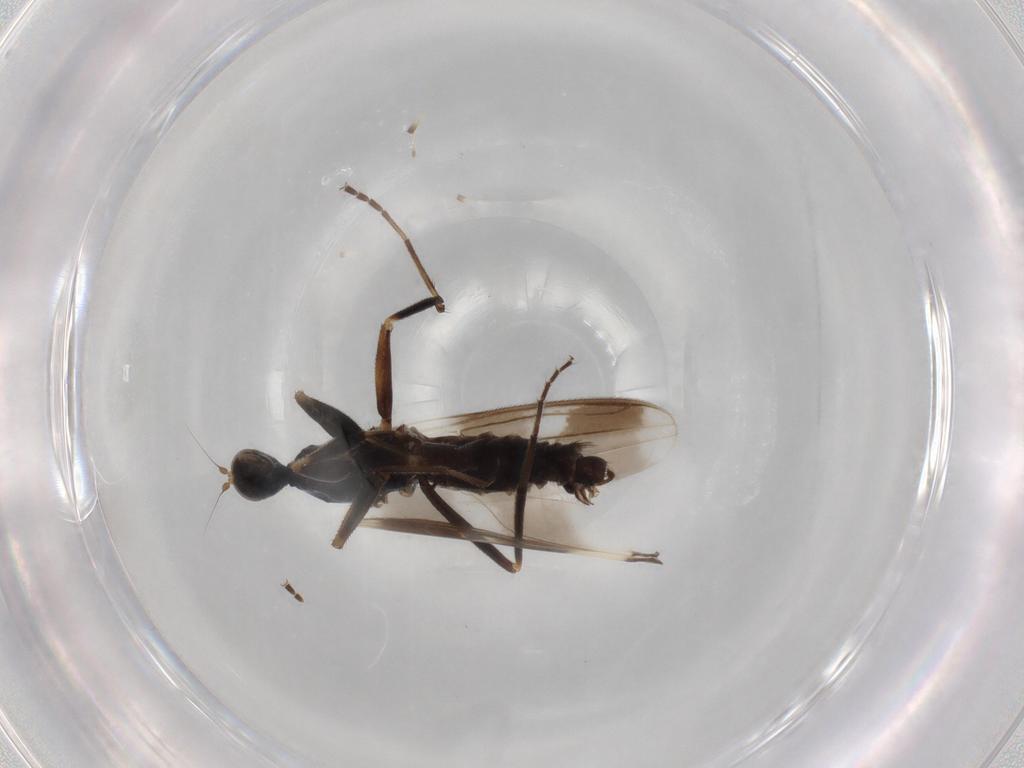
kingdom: Animalia
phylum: Arthropoda
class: Insecta
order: Diptera
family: Hybotidae
